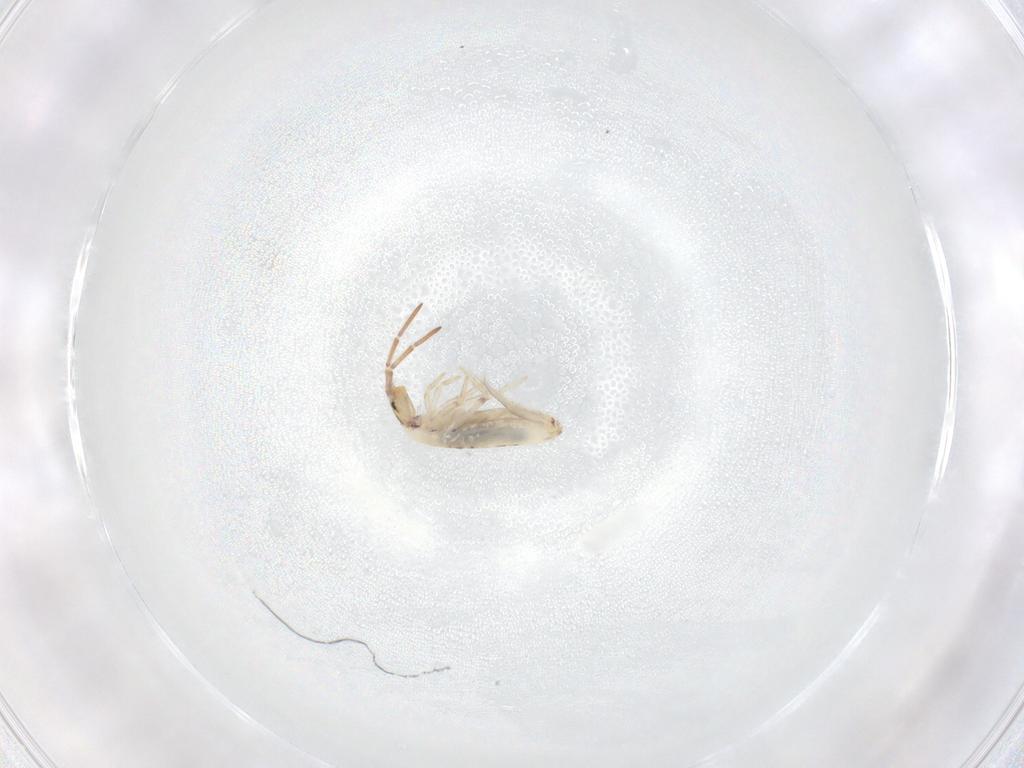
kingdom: Animalia
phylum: Arthropoda
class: Collembola
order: Entomobryomorpha
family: Entomobryidae
